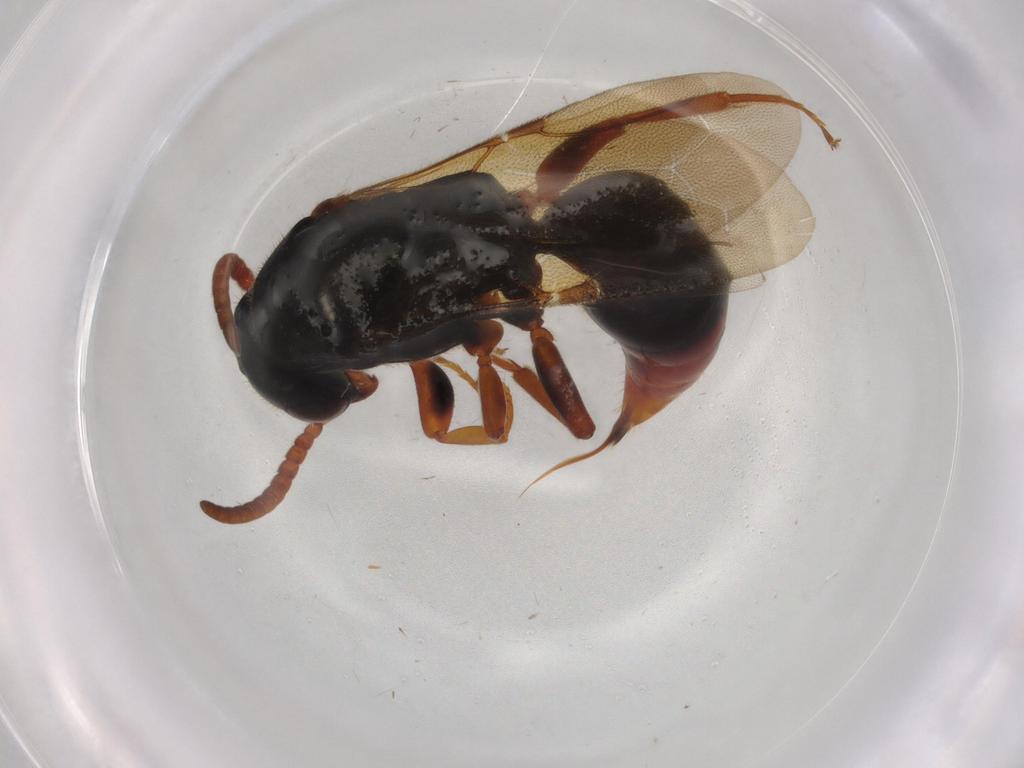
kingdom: Animalia
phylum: Arthropoda
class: Insecta
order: Hymenoptera
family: Bethylidae
